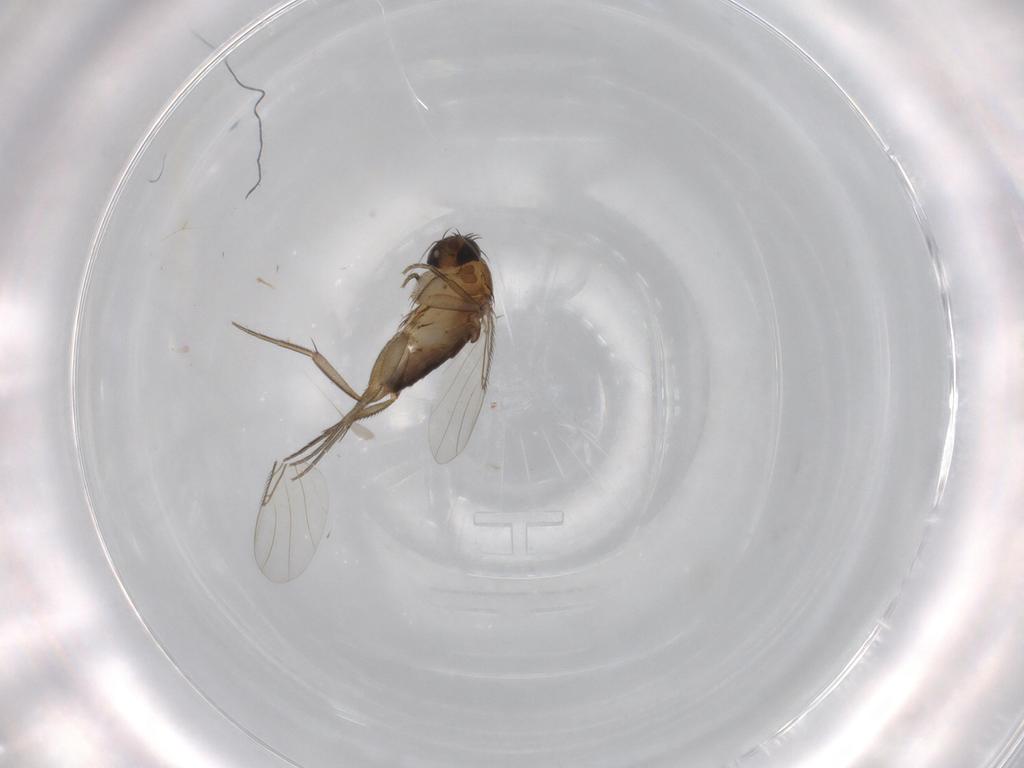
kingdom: Animalia
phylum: Arthropoda
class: Insecta
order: Diptera
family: Phoridae
